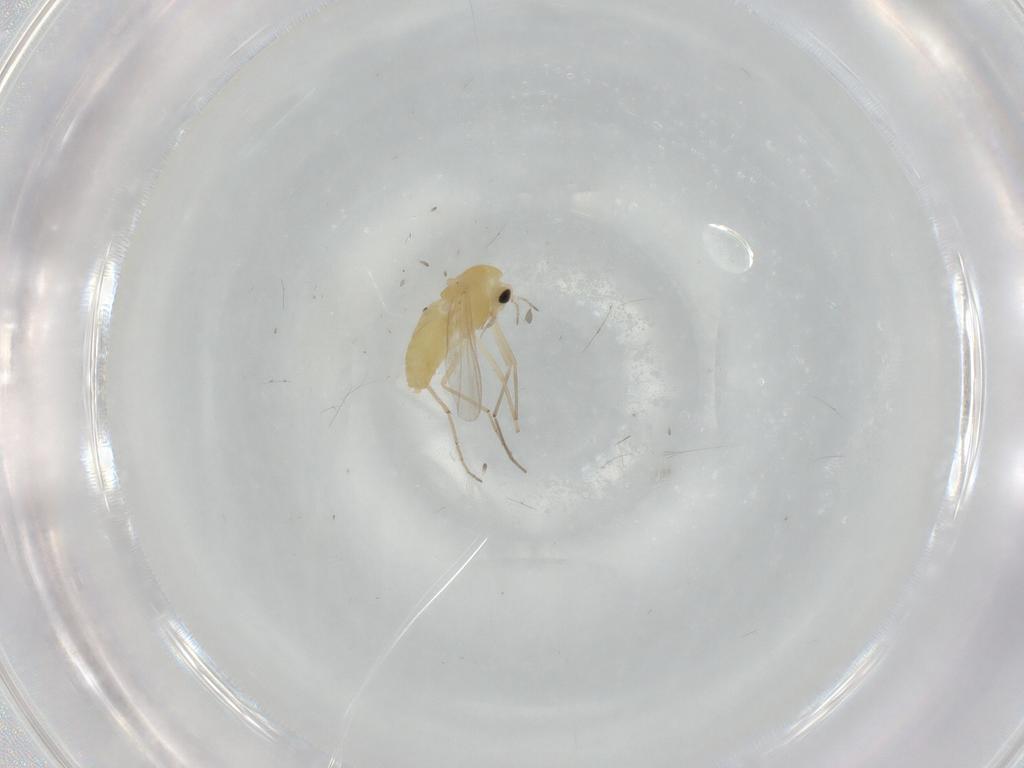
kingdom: Animalia
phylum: Arthropoda
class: Insecta
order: Diptera
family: Chironomidae
